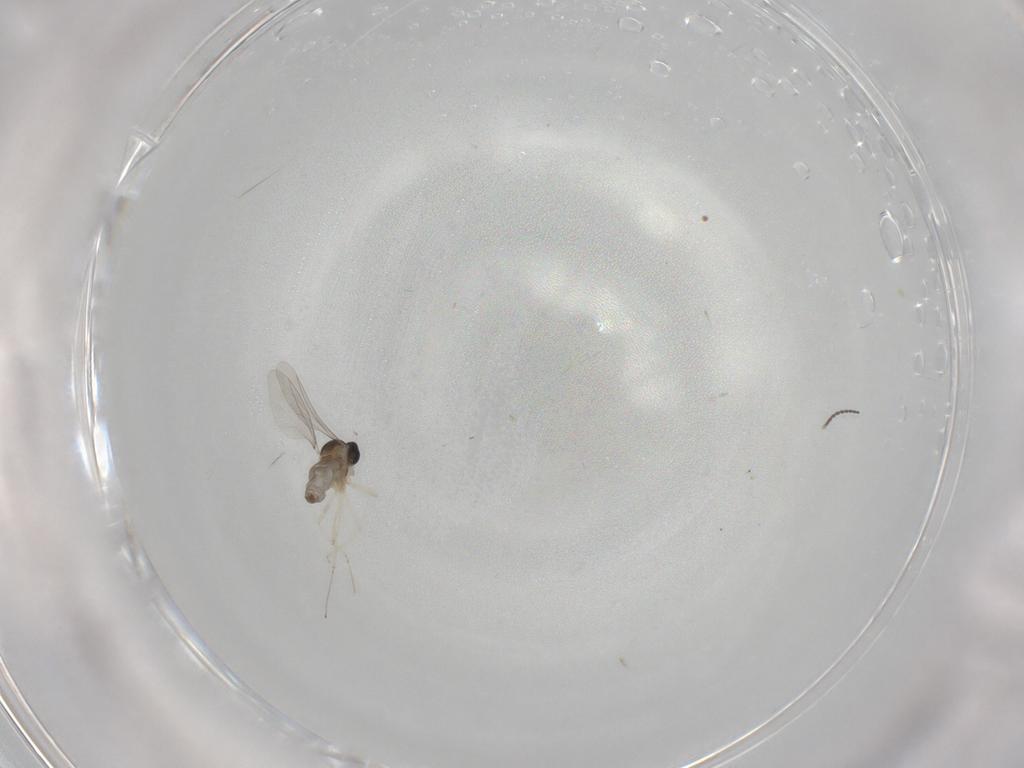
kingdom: Animalia
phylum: Arthropoda
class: Insecta
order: Diptera
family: Cecidomyiidae
